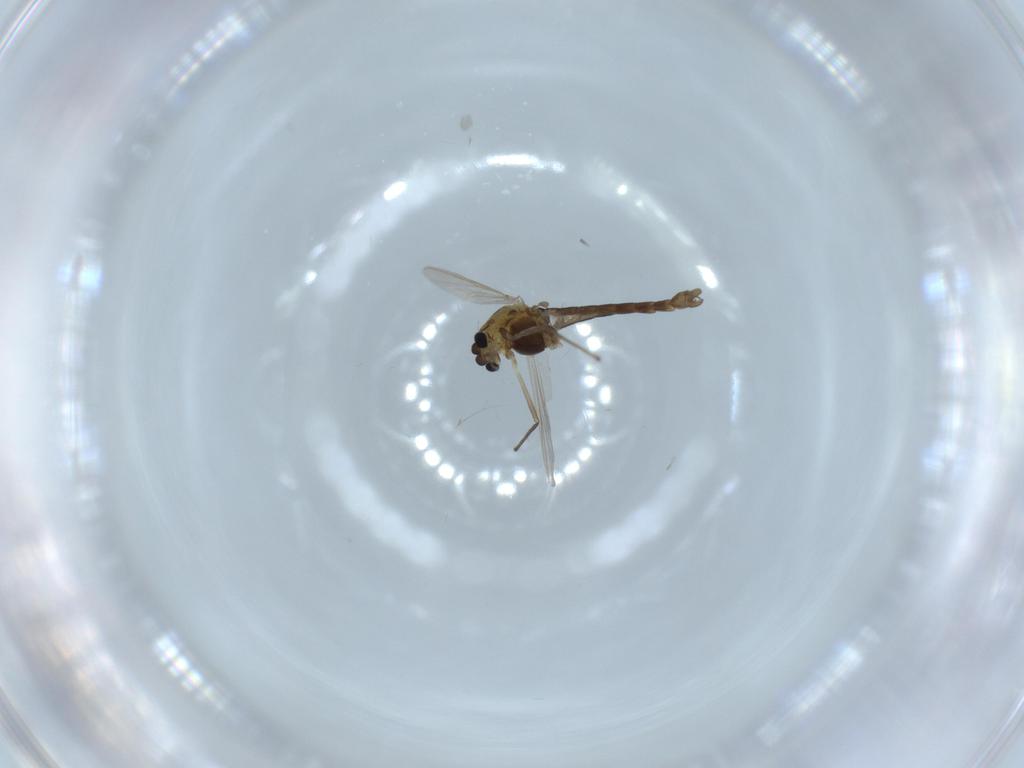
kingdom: Animalia
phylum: Arthropoda
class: Insecta
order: Diptera
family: Chironomidae
